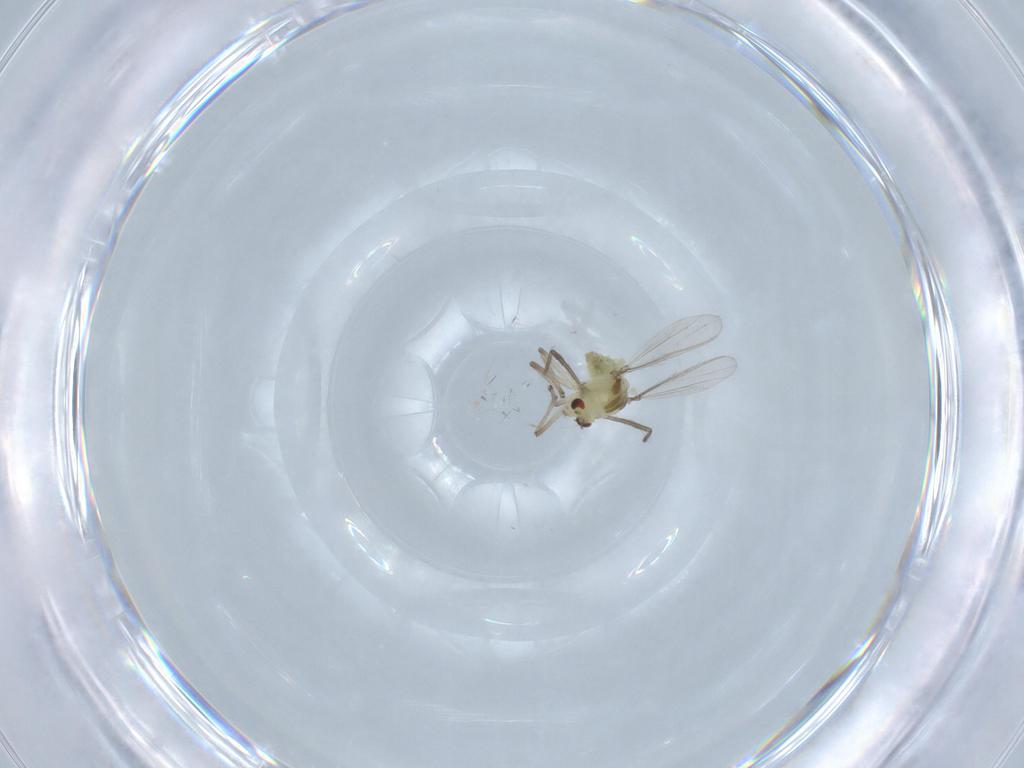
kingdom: Animalia
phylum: Arthropoda
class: Insecta
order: Diptera
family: Chironomidae
